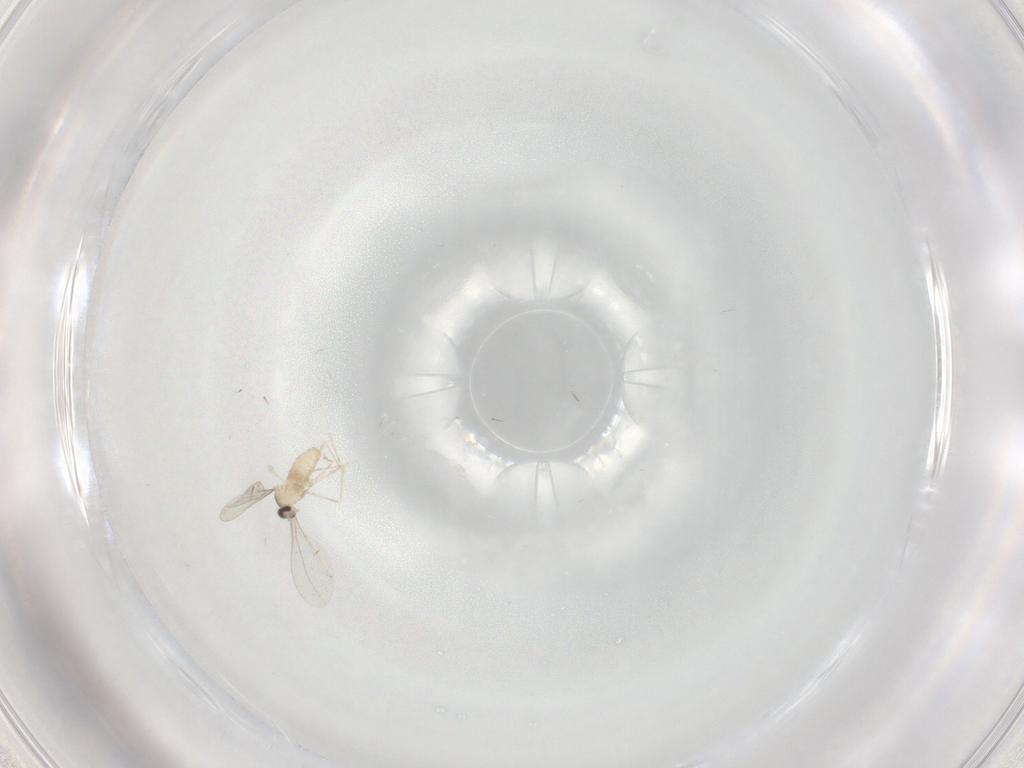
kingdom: Animalia
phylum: Arthropoda
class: Insecta
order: Diptera
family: Cecidomyiidae
